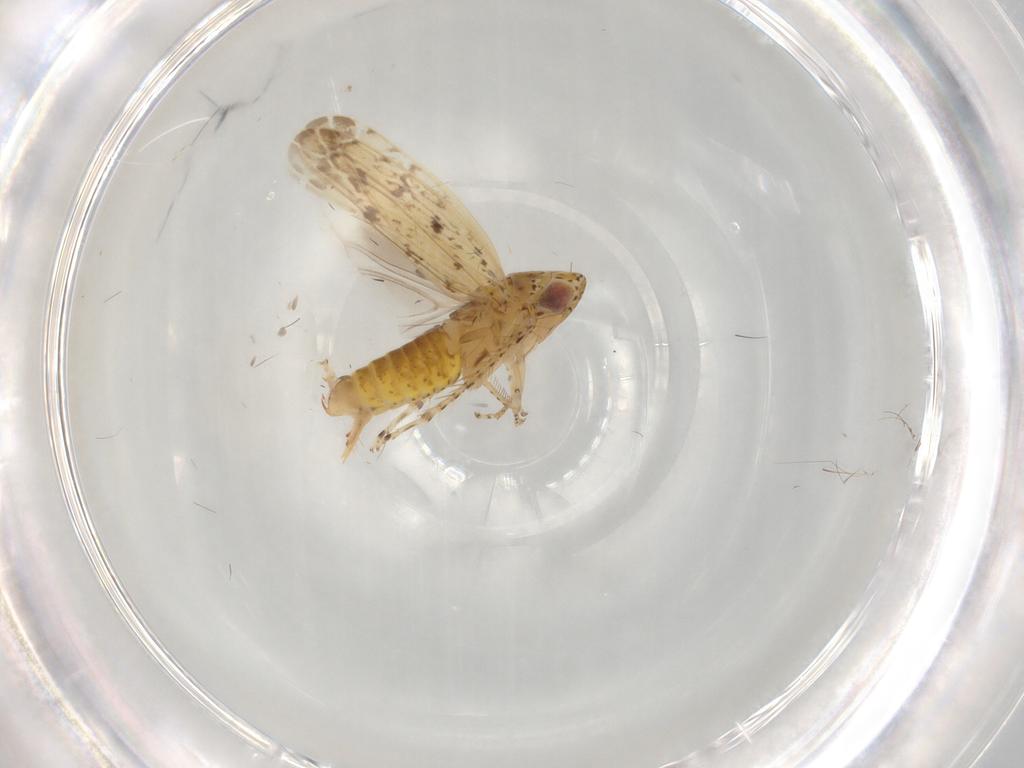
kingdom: Animalia
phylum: Arthropoda
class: Insecta
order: Hemiptera
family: Cicadellidae
